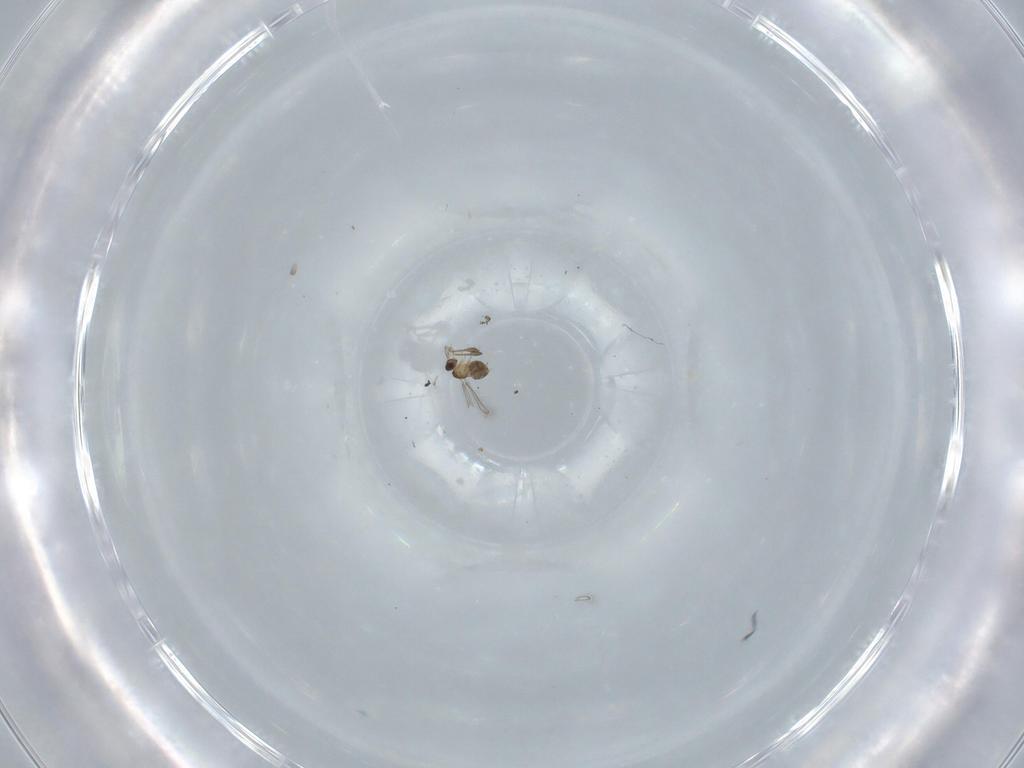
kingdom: Animalia
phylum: Arthropoda
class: Insecta
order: Hymenoptera
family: Mymaridae
